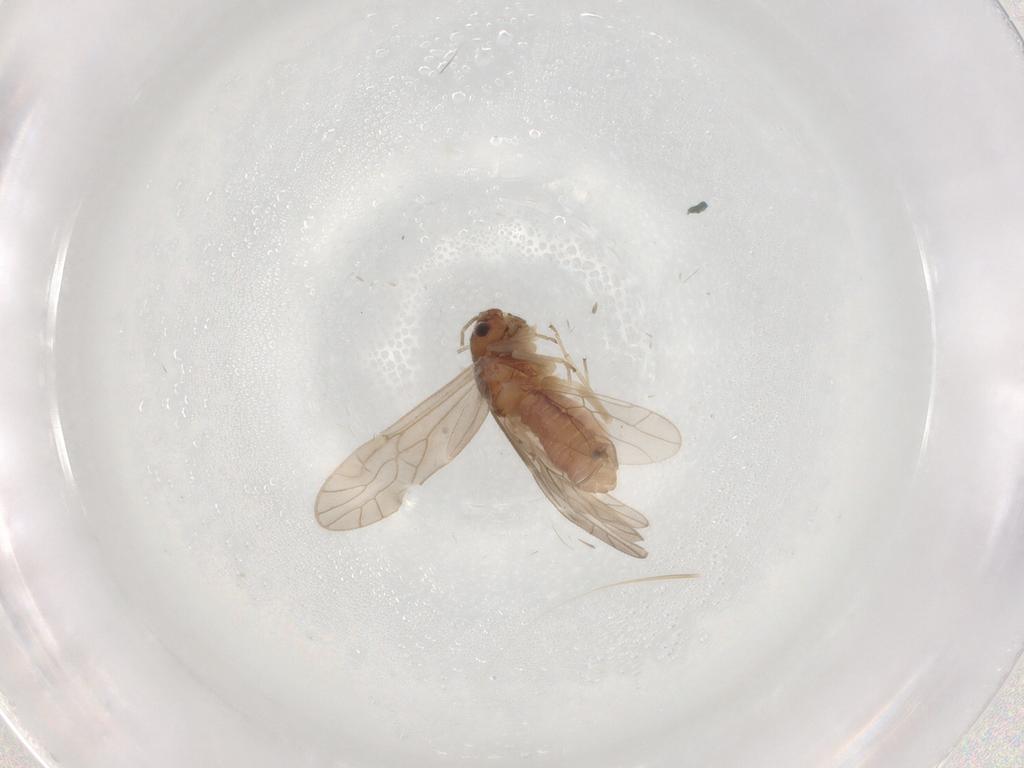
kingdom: Animalia
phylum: Arthropoda
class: Insecta
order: Psocodea
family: Caeciliusidae
